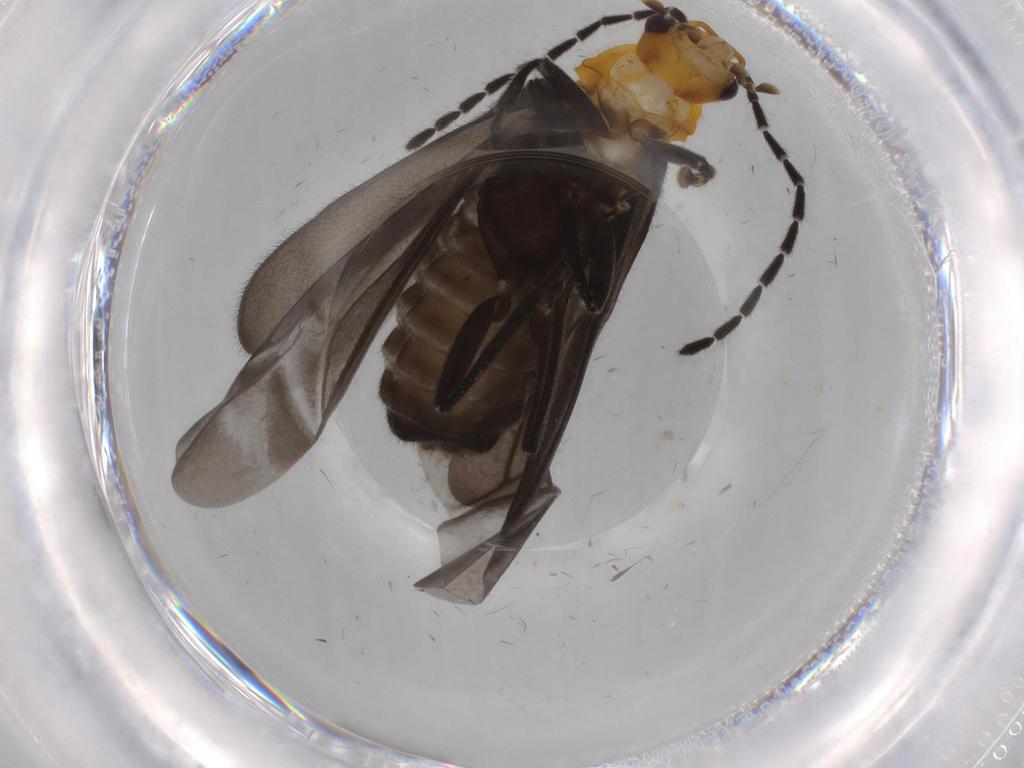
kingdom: Animalia
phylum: Arthropoda
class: Insecta
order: Coleoptera
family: Cantharidae
